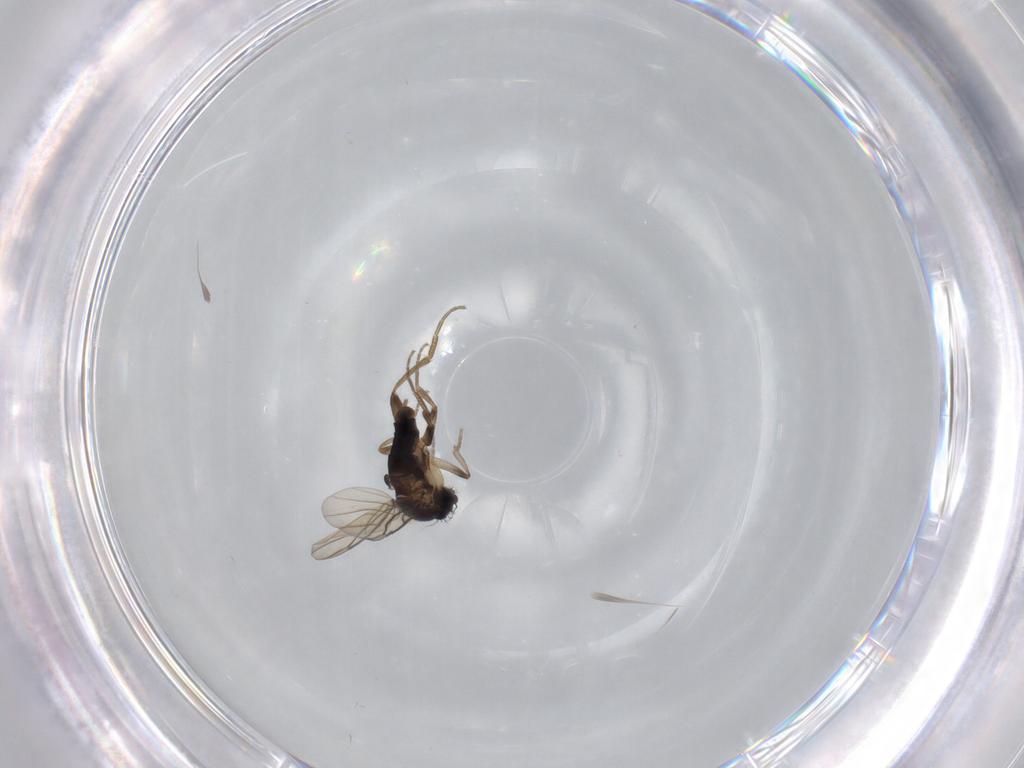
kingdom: Animalia
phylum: Arthropoda
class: Insecta
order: Diptera
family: Phoridae
